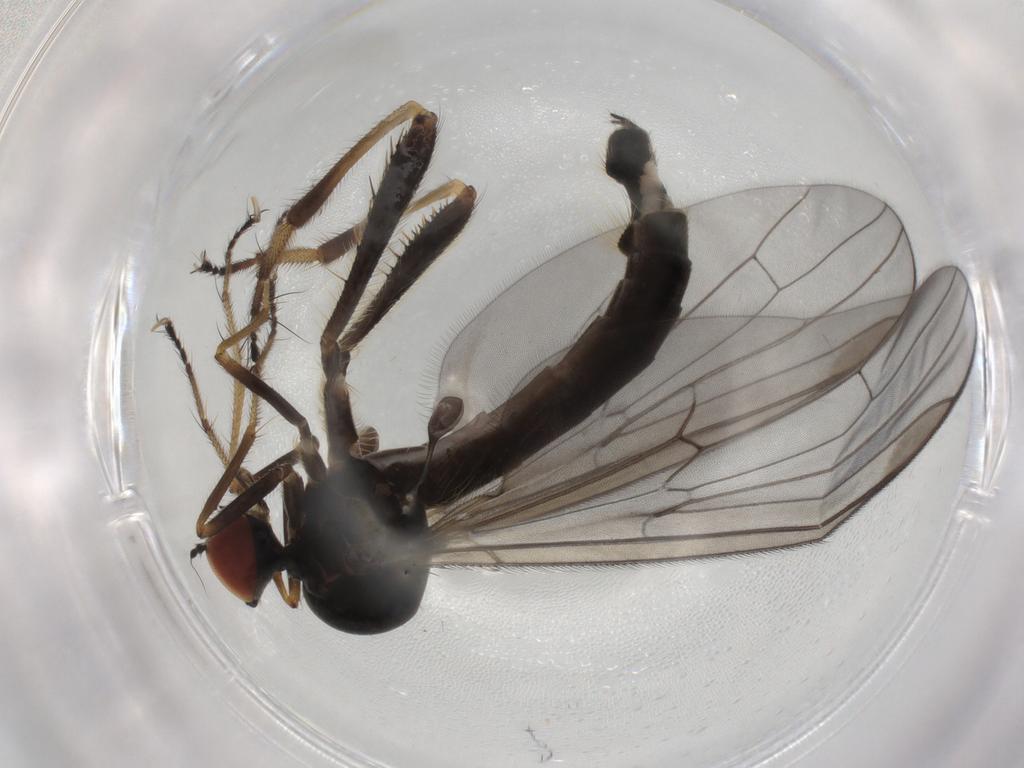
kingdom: Animalia
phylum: Arthropoda
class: Insecta
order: Diptera
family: Hybotidae
